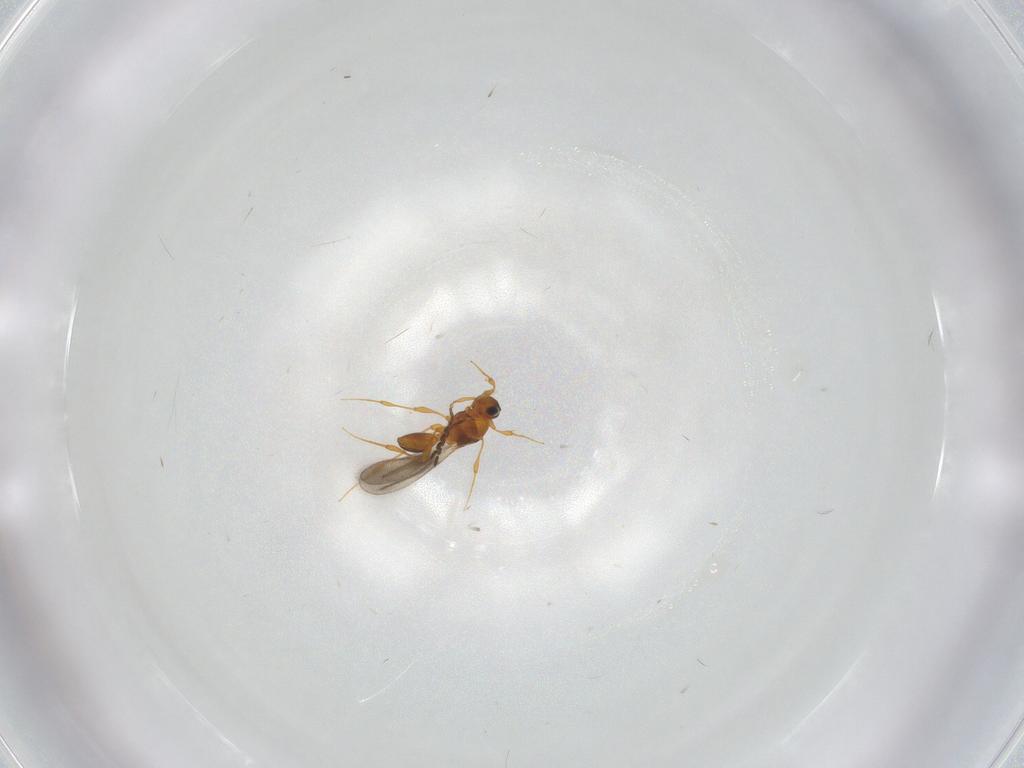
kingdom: Animalia
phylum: Arthropoda
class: Insecta
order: Hymenoptera
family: Platygastridae
